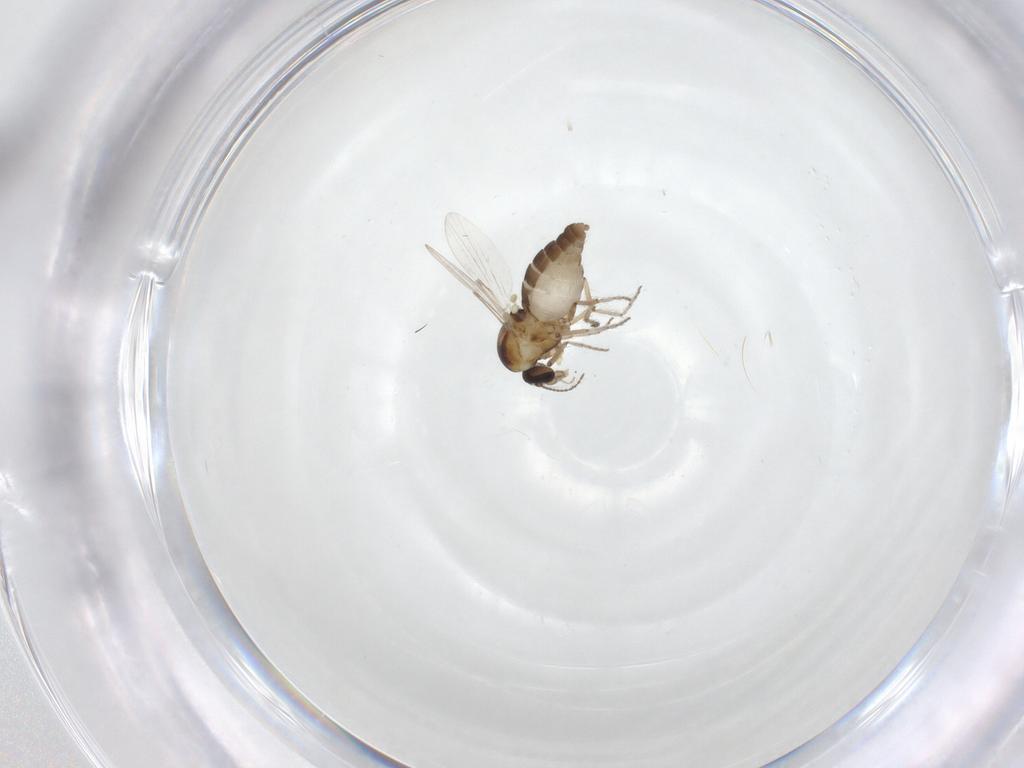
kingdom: Animalia
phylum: Arthropoda
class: Insecta
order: Diptera
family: Ceratopogonidae
